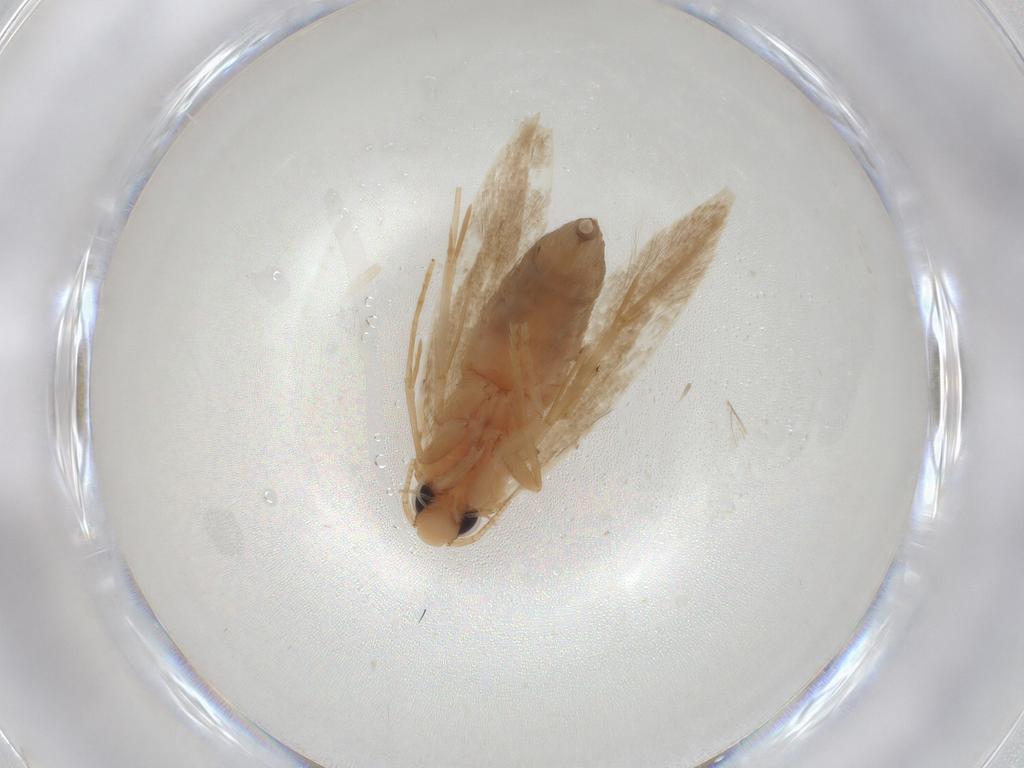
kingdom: Animalia
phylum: Arthropoda
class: Insecta
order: Lepidoptera
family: Tineidae
